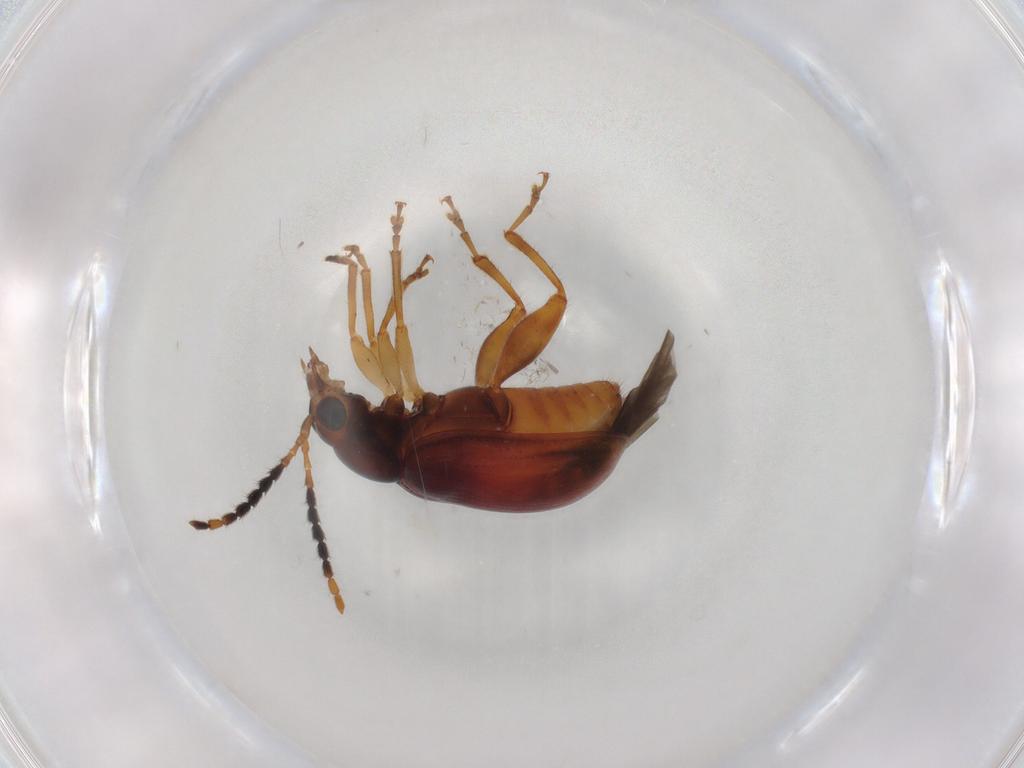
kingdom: Animalia
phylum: Arthropoda
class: Insecta
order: Coleoptera
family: Chrysomelidae
